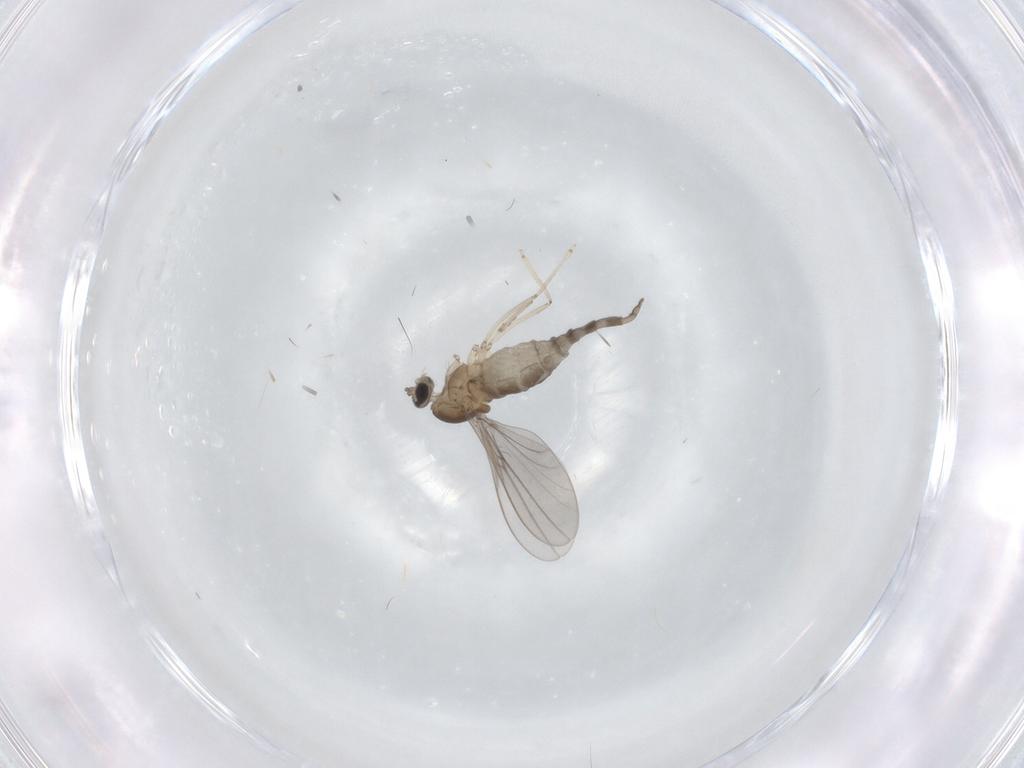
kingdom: Animalia
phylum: Arthropoda
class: Insecta
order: Diptera
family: Cecidomyiidae
